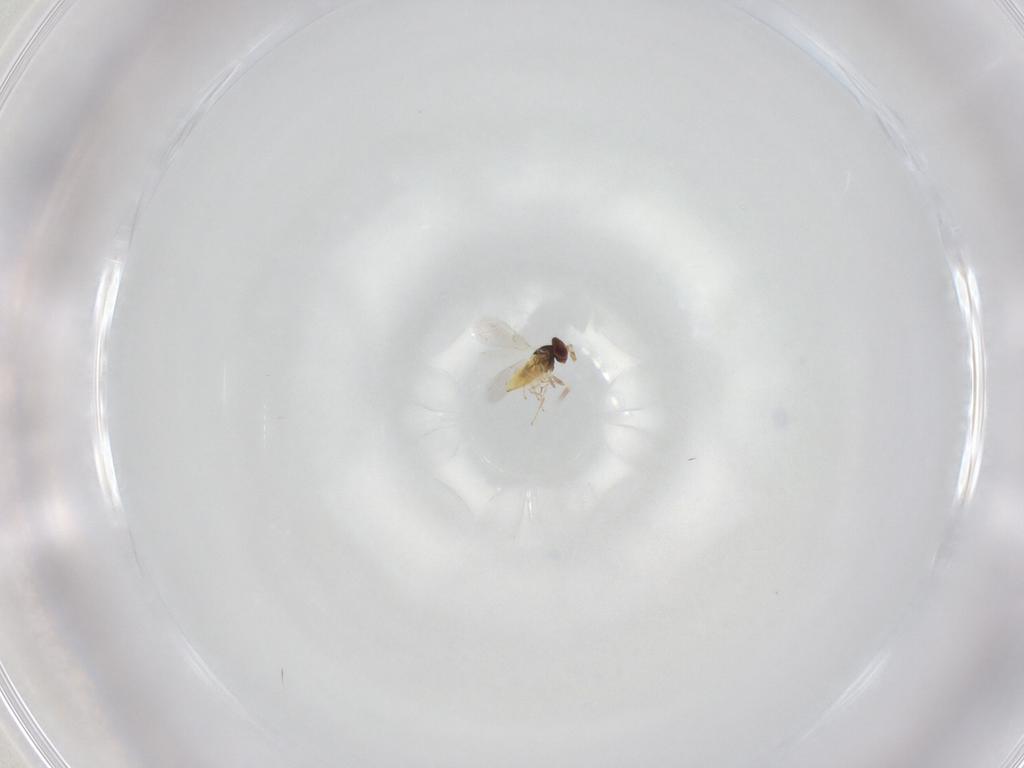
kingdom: Animalia
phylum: Arthropoda
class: Insecta
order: Hymenoptera
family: Trichogrammatidae
